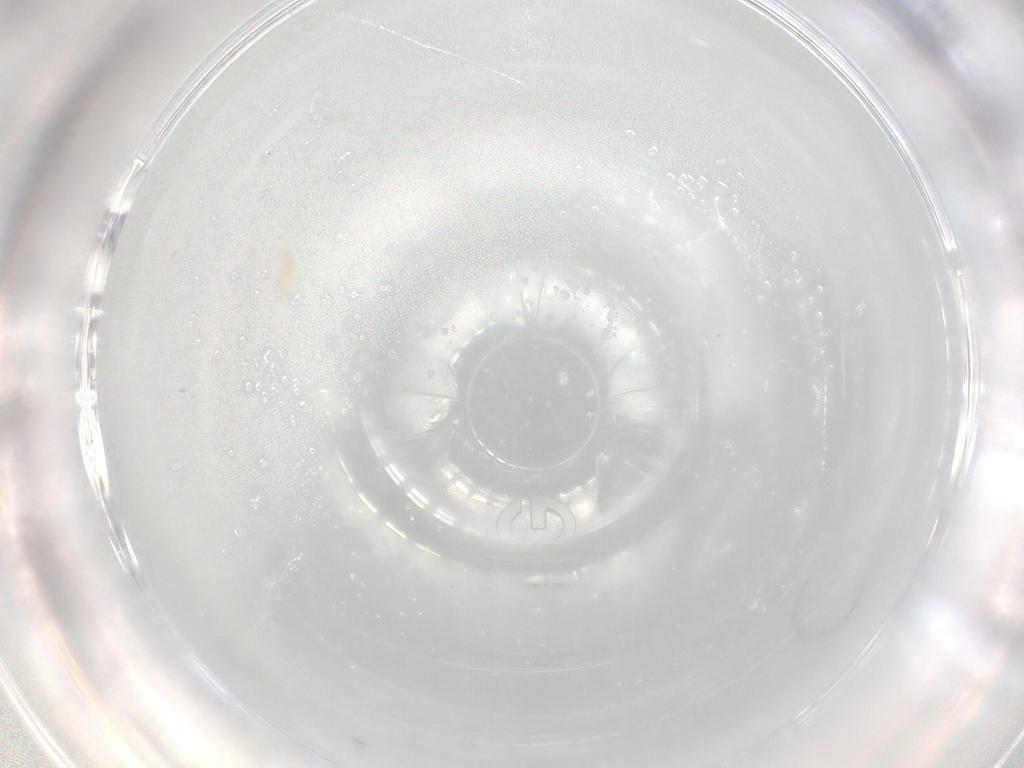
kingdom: Animalia
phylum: Arthropoda
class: Arachnida
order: Trombidiformes
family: Eupodidae
